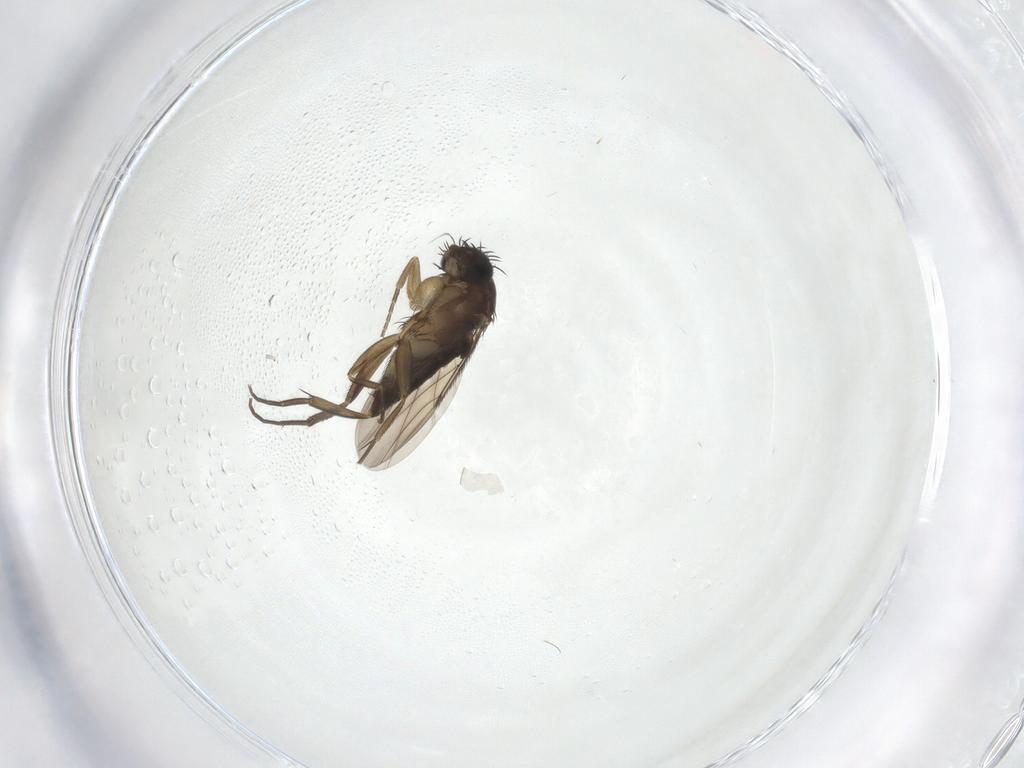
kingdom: Animalia
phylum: Arthropoda
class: Insecta
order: Diptera
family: Phoridae
